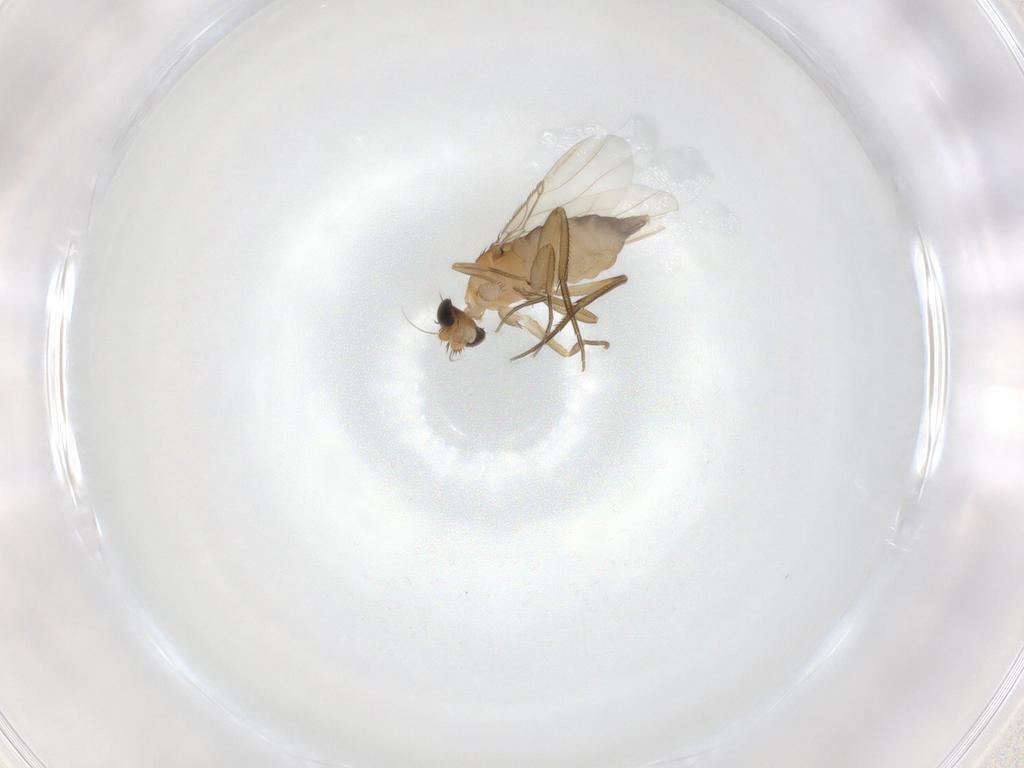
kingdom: Animalia
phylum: Arthropoda
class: Insecta
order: Diptera
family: Phoridae
